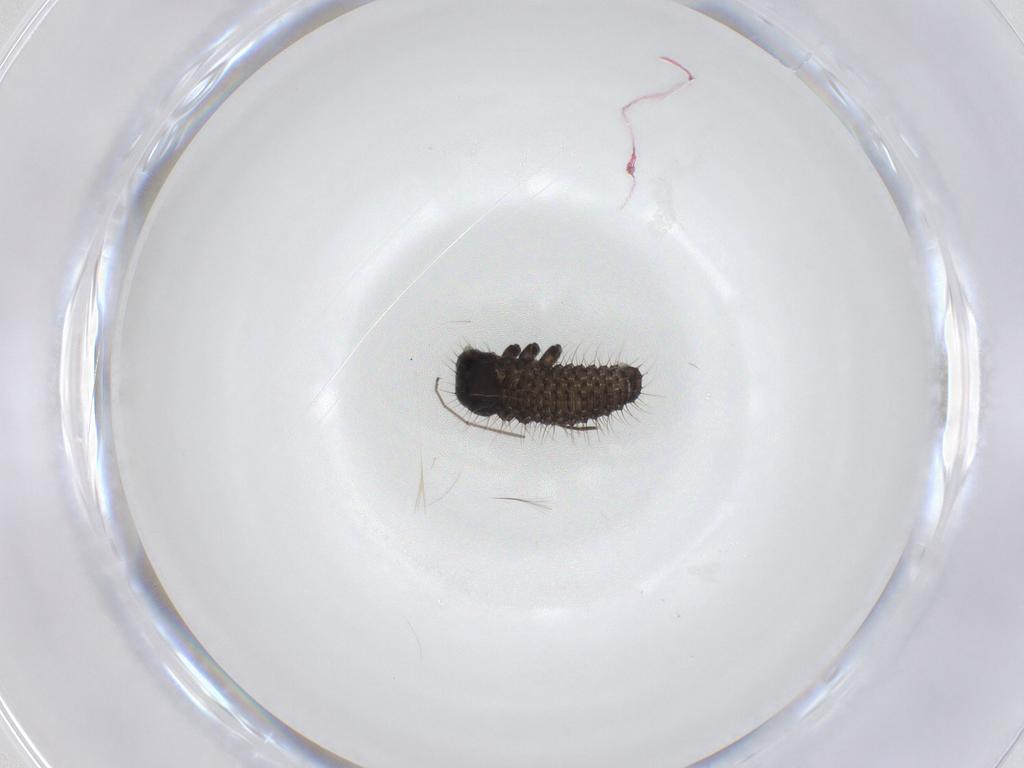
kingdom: Animalia
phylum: Arthropoda
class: Insecta
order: Coleoptera
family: Chrysomelidae
